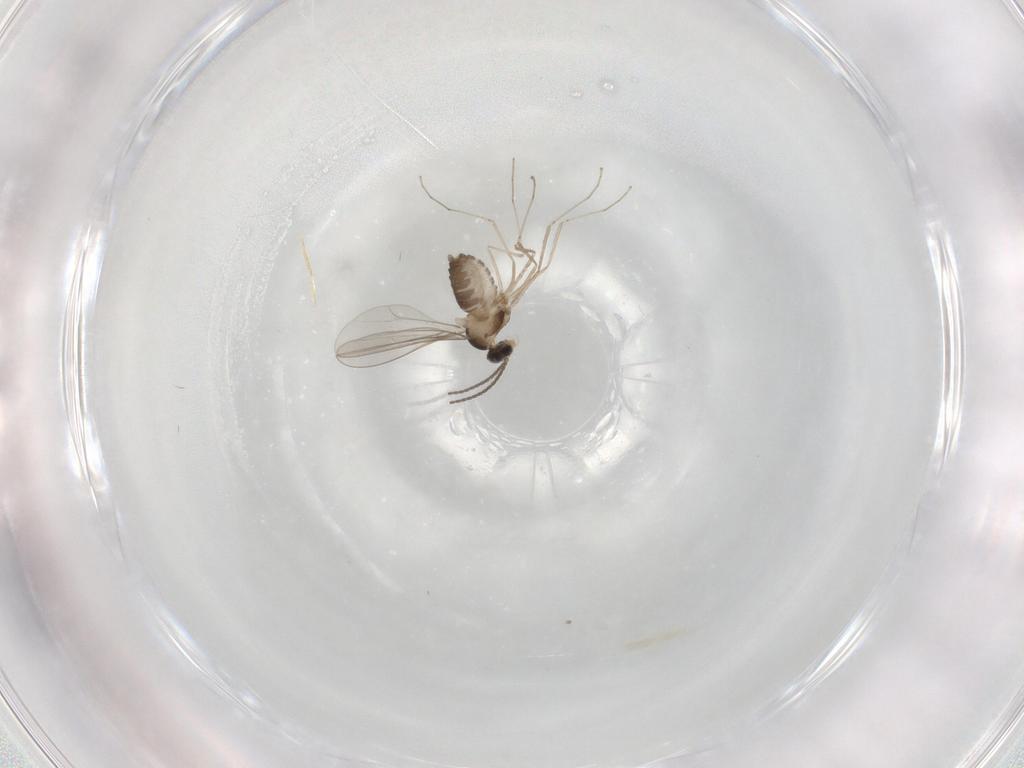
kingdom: Animalia
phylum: Arthropoda
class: Insecta
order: Diptera
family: Cecidomyiidae
